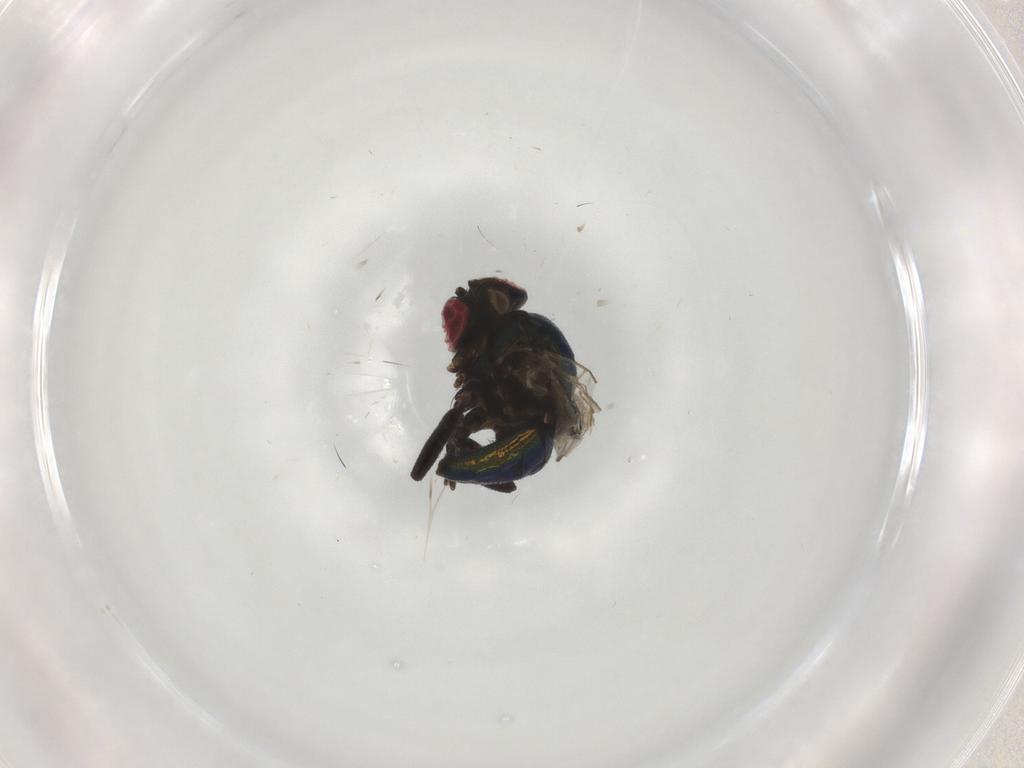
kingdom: Animalia
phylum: Arthropoda
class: Insecta
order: Diptera
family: Agromyzidae
